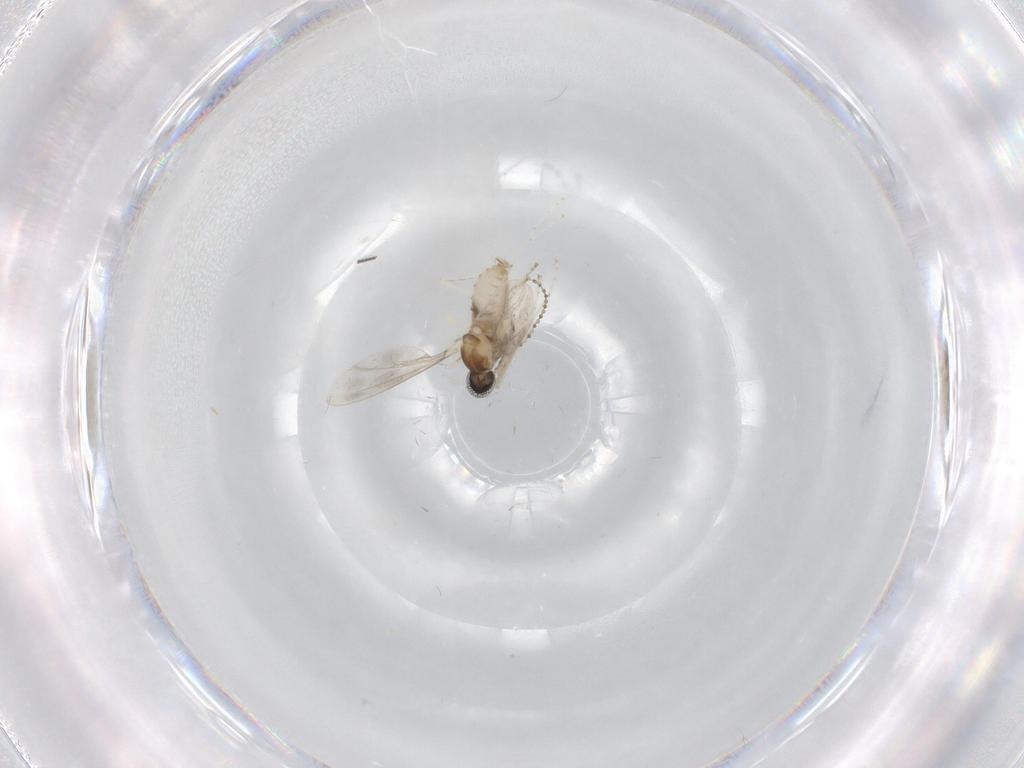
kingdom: Animalia
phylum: Arthropoda
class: Insecta
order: Diptera
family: Cecidomyiidae
